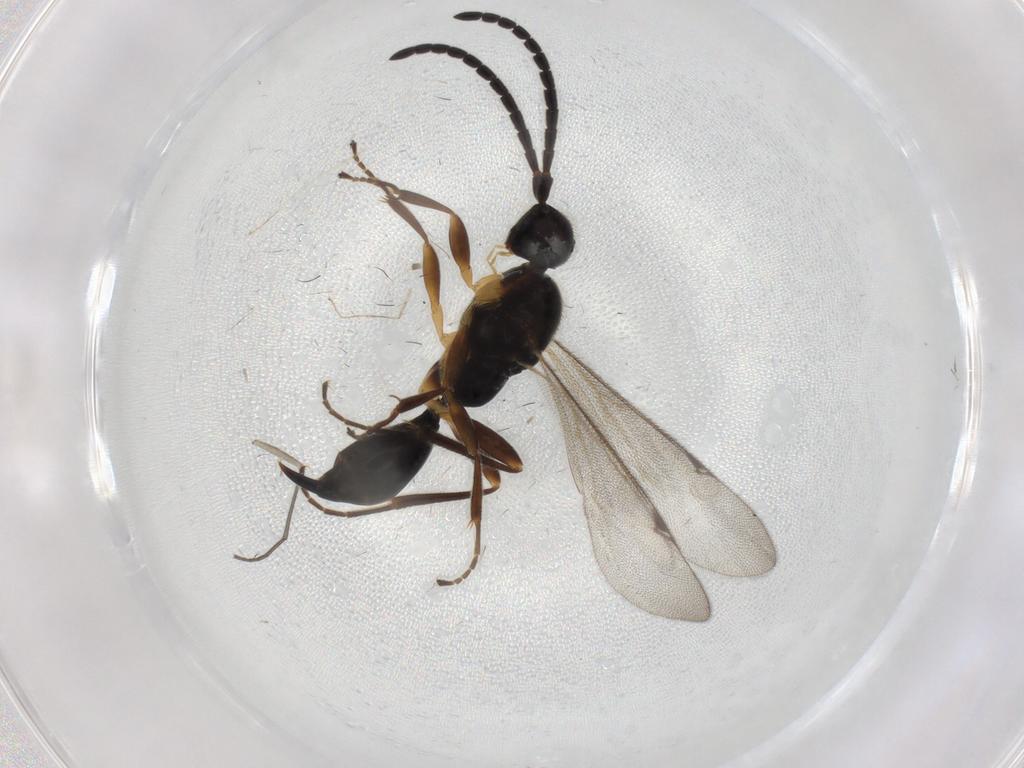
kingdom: Animalia
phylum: Arthropoda
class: Insecta
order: Hymenoptera
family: Proctotrupidae
